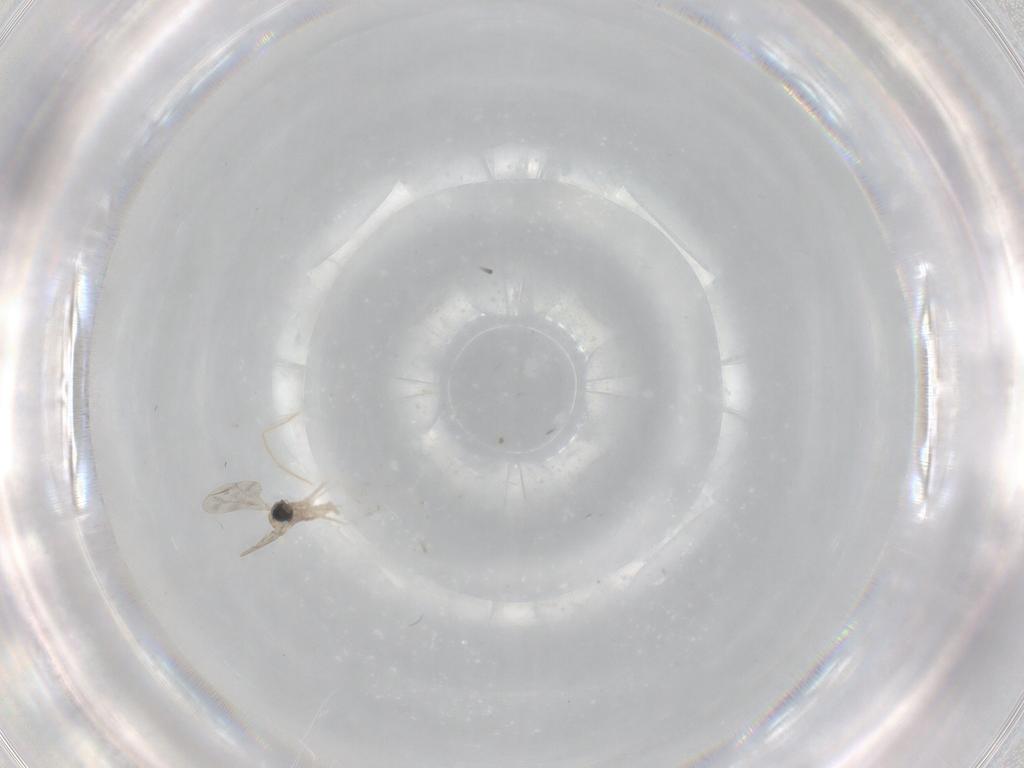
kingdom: Animalia
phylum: Arthropoda
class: Insecta
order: Diptera
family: Cecidomyiidae
